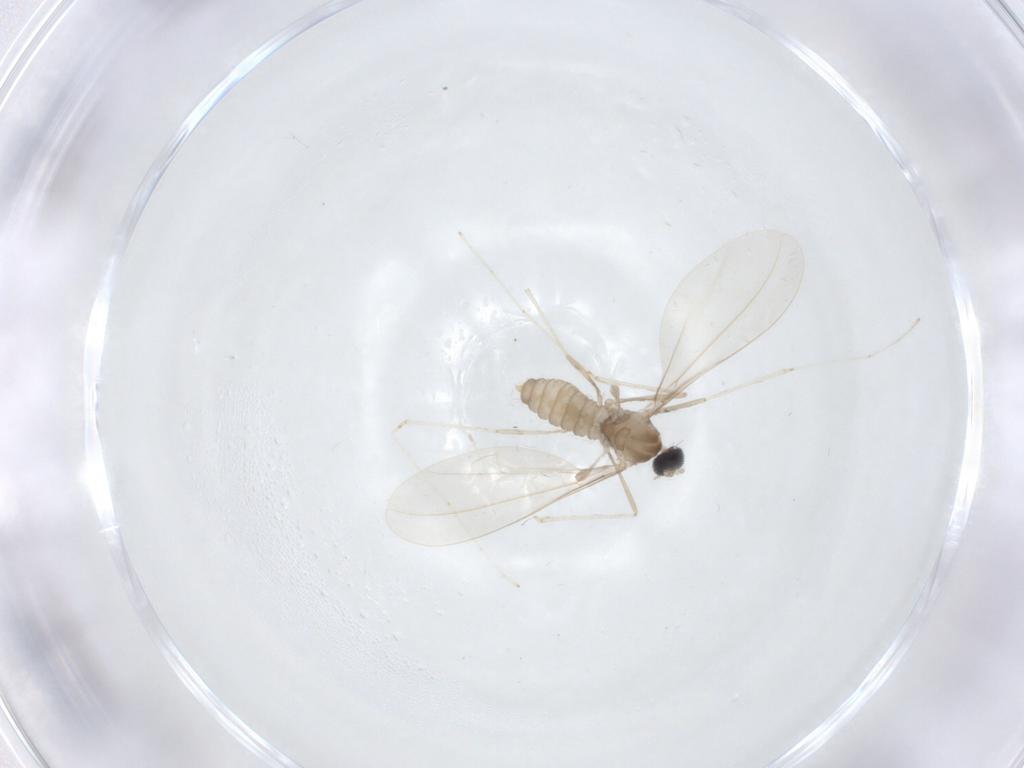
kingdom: Animalia
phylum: Arthropoda
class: Insecta
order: Diptera
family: Cecidomyiidae
